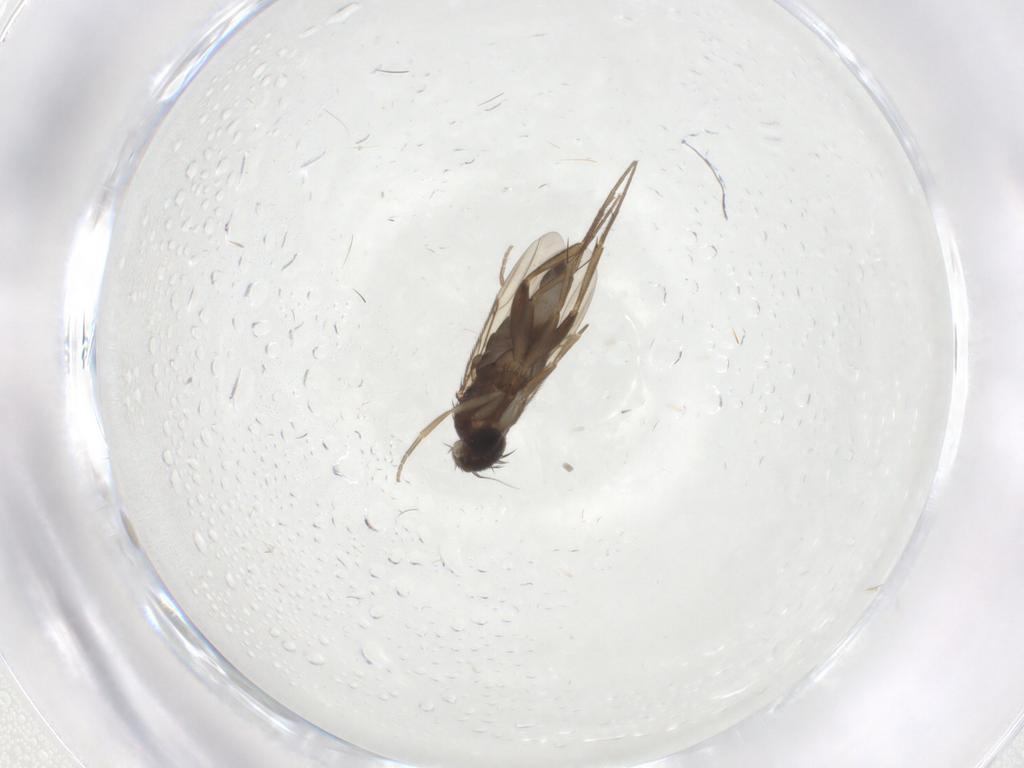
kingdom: Animalia
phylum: Arthropoda
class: Insecta
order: Diptera
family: Phoridae
